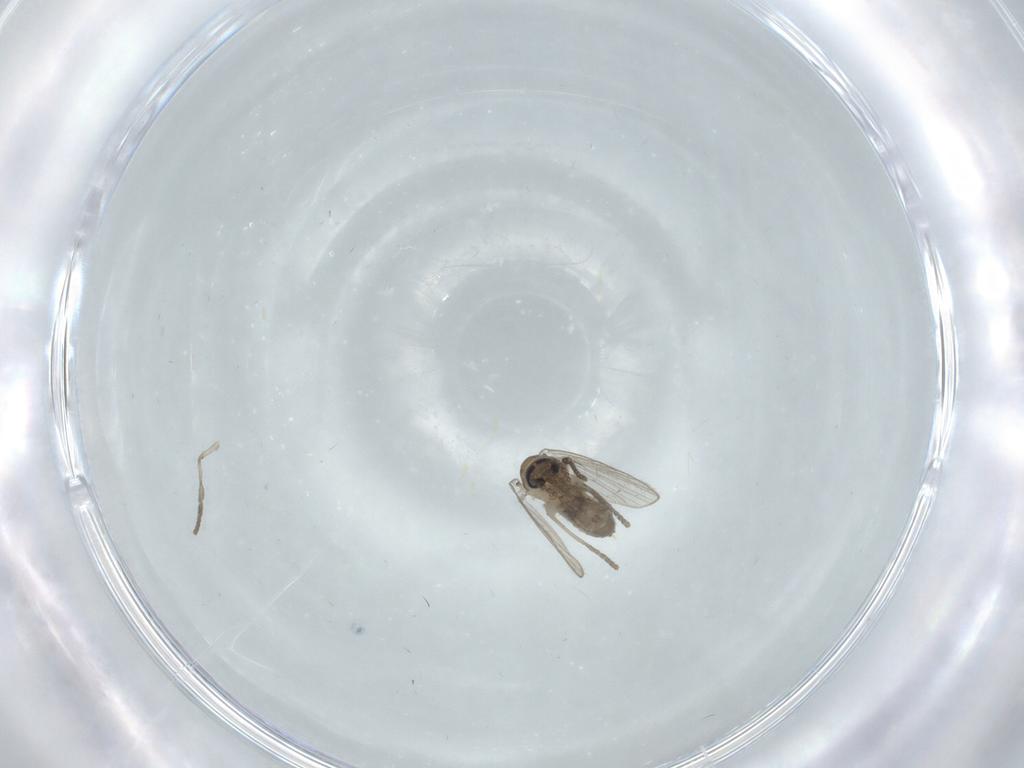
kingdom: Animalia
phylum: Arthropoda
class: Insecta
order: Diptera
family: Psychodidae
